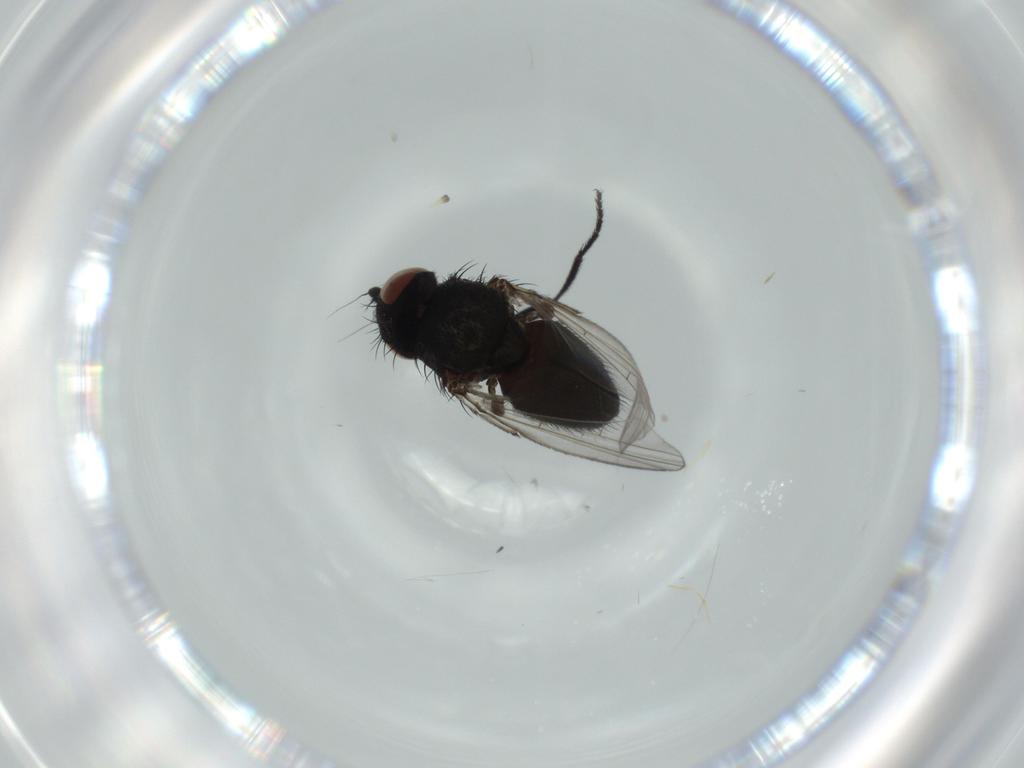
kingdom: Animalia
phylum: Arthropoda
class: Insecta
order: Diptera
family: Milichiidae
